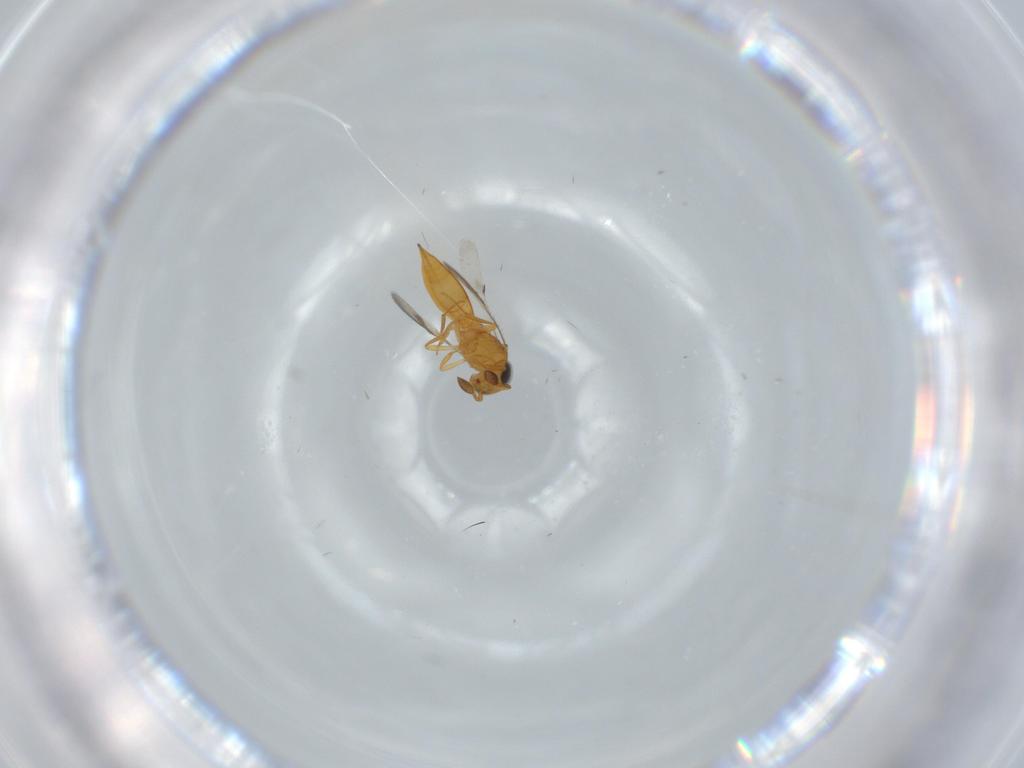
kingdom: Animalia
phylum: Arthropoda
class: Insecta
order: Hymenoptera
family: Scelionidae
